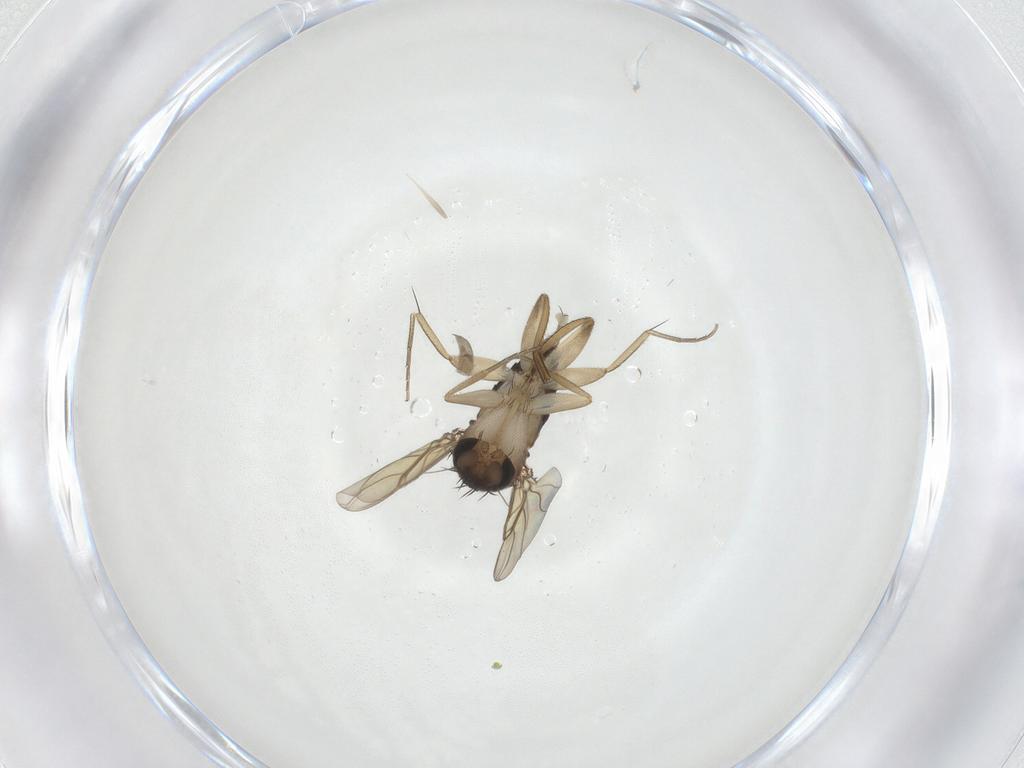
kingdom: Animalia
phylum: Arthropoda
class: Insecta
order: Diptera
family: Phoridae
